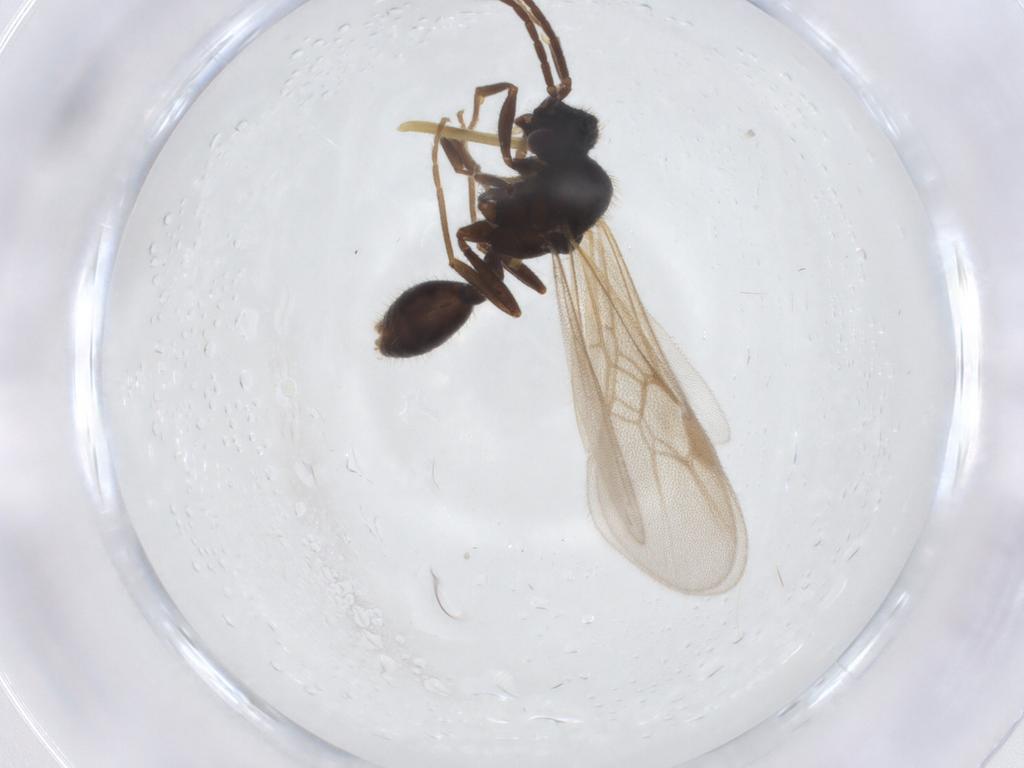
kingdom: Animalia
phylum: Arthropoda
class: Insecta
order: Hymenoptera
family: Formicidae
